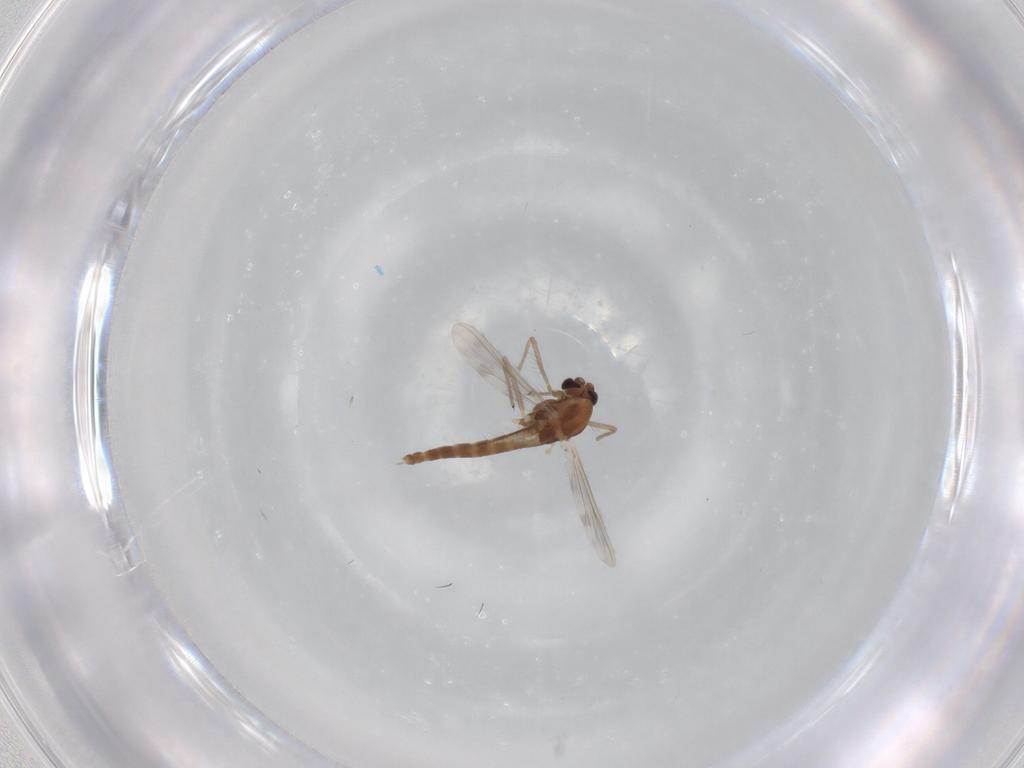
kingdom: Animalia
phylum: Arthropoda
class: Insecta
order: Diptera
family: Chironomidae
